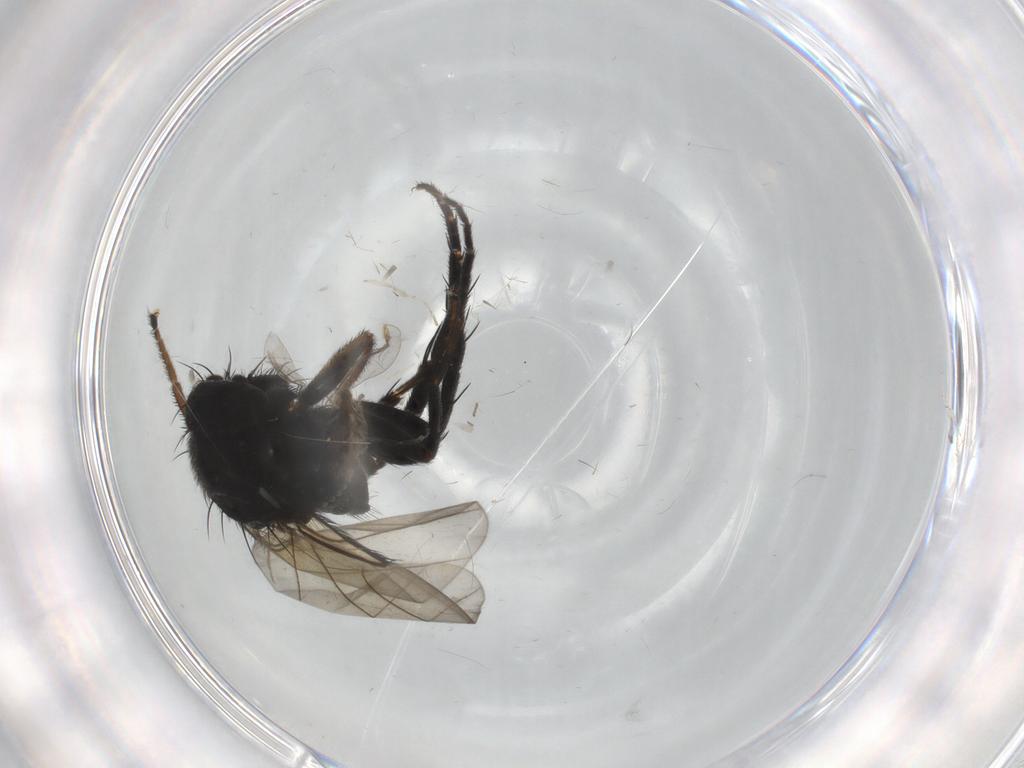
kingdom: Animalia
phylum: Arthropoda
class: Insecta
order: Diptera
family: Phoridae
